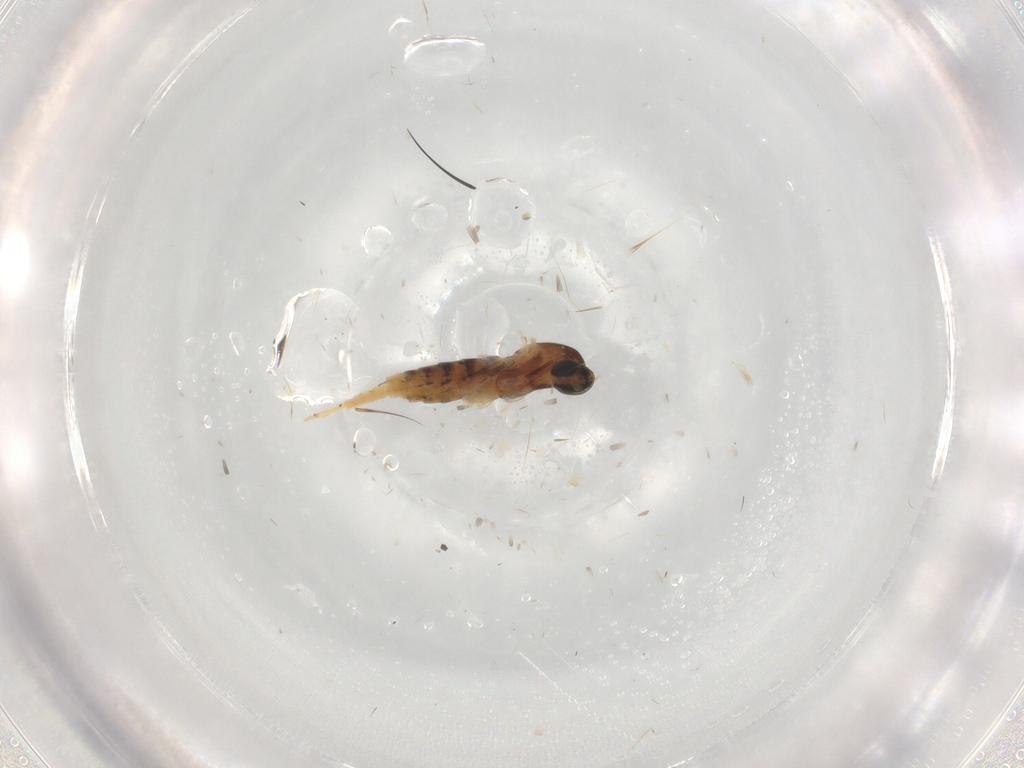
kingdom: Animalia
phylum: Arthropoda
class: Insecta
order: Diptera
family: Cecidomyiidae
